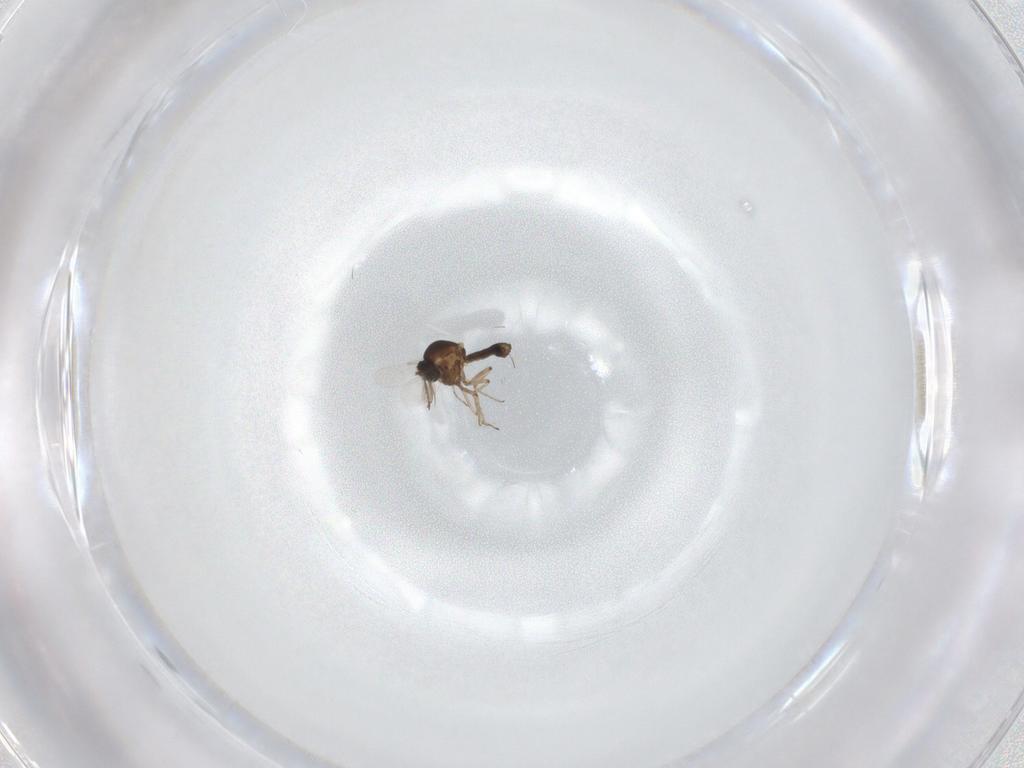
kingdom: Animalia
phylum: Arthropoda
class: Insecta
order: Diptera
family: Ceratopogonidae
